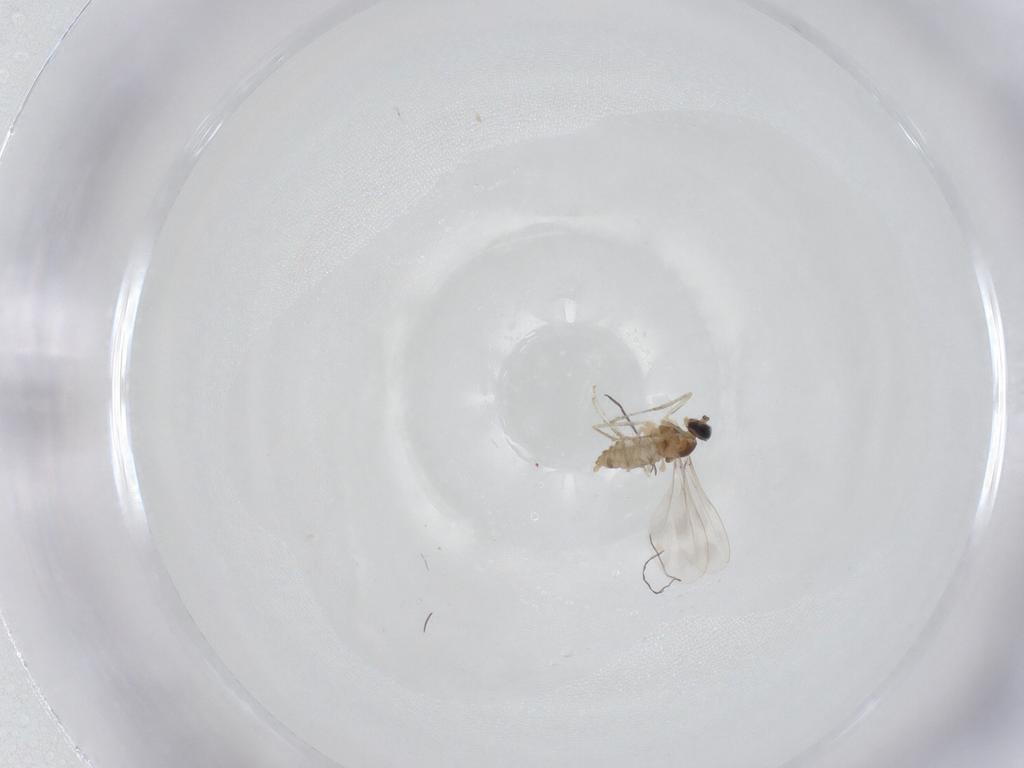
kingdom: Animalia
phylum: Arthropoda
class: Insecta
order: Diptera
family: Cecidomyiidae
